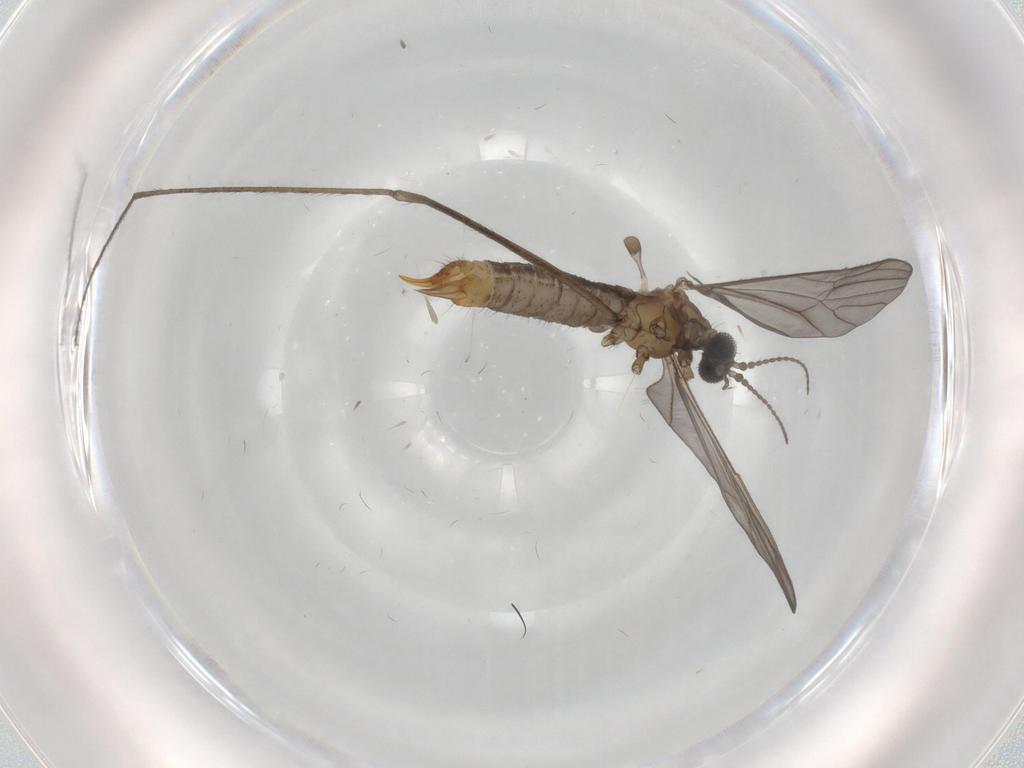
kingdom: Animalia
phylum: Arthropoda
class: Insecta
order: Diptera
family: Limoniidae
